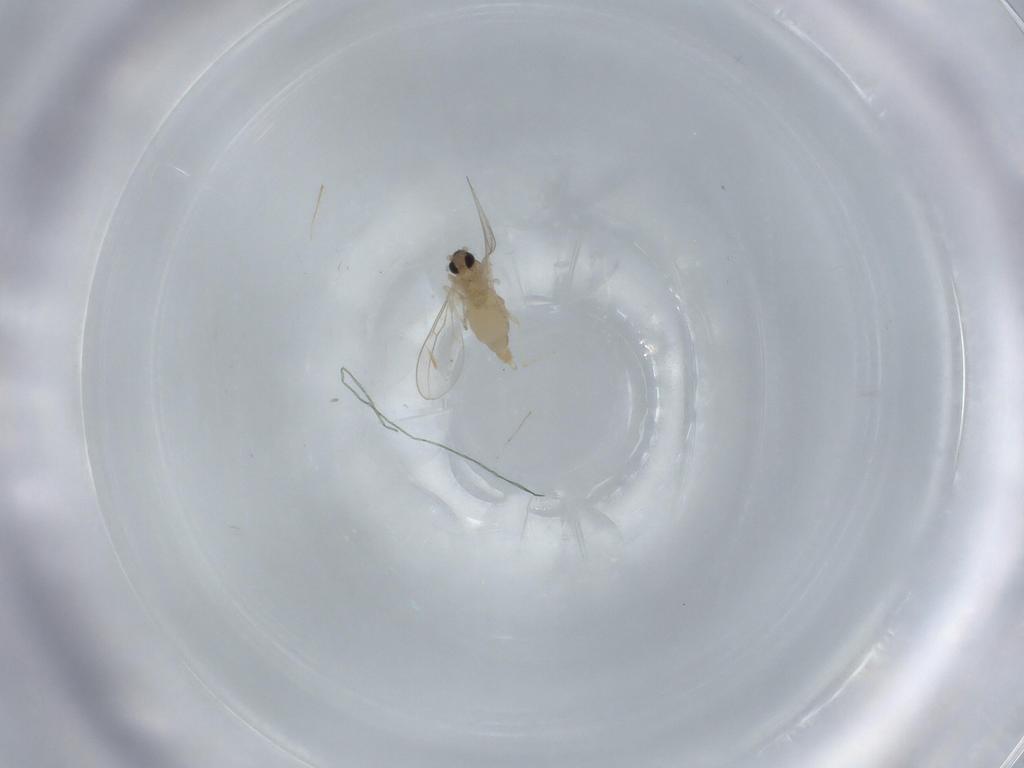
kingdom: Animalia
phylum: Arthropoda
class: Insecta
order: Diptera
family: Cecidomyiidae
